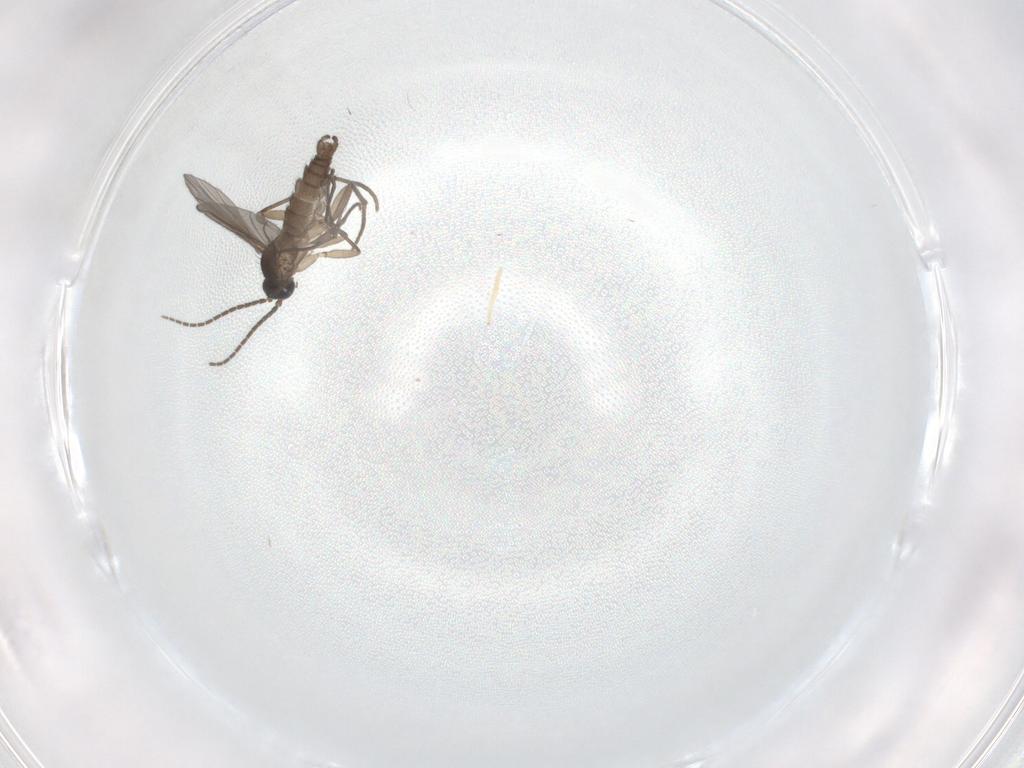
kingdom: Animalia
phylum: Arthropoda
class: Insecta
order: Diptera
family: Sciaridae
